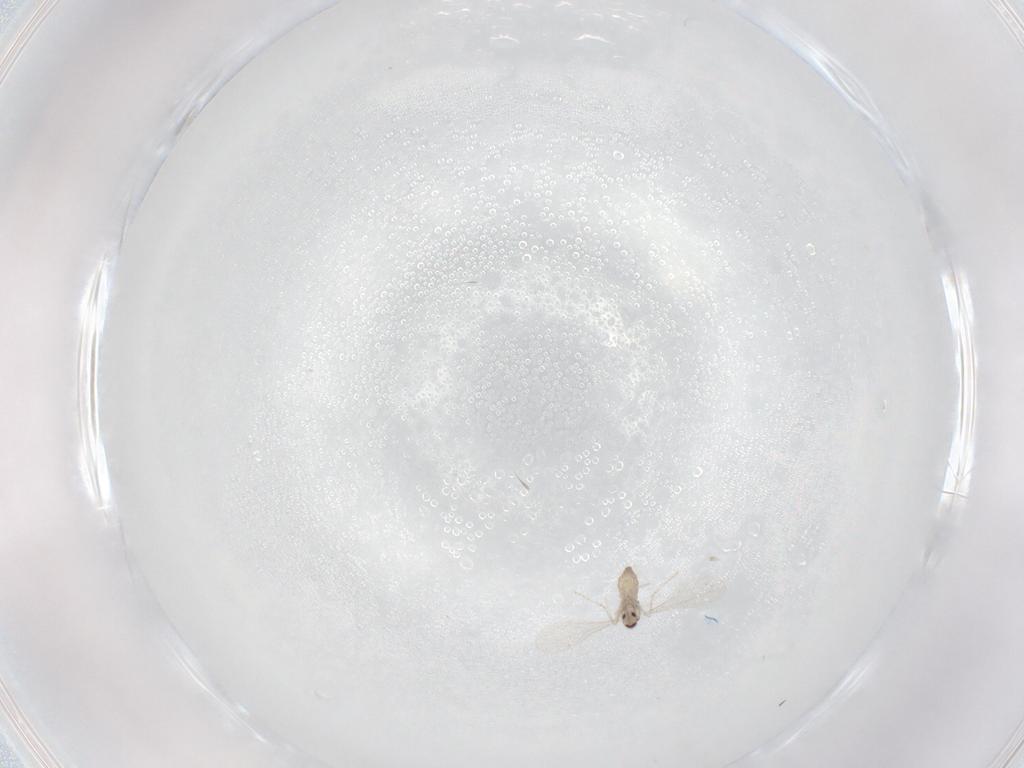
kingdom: Animalia
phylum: Arthropoda
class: Insecta
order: Diptera
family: Cecidomyiidae
